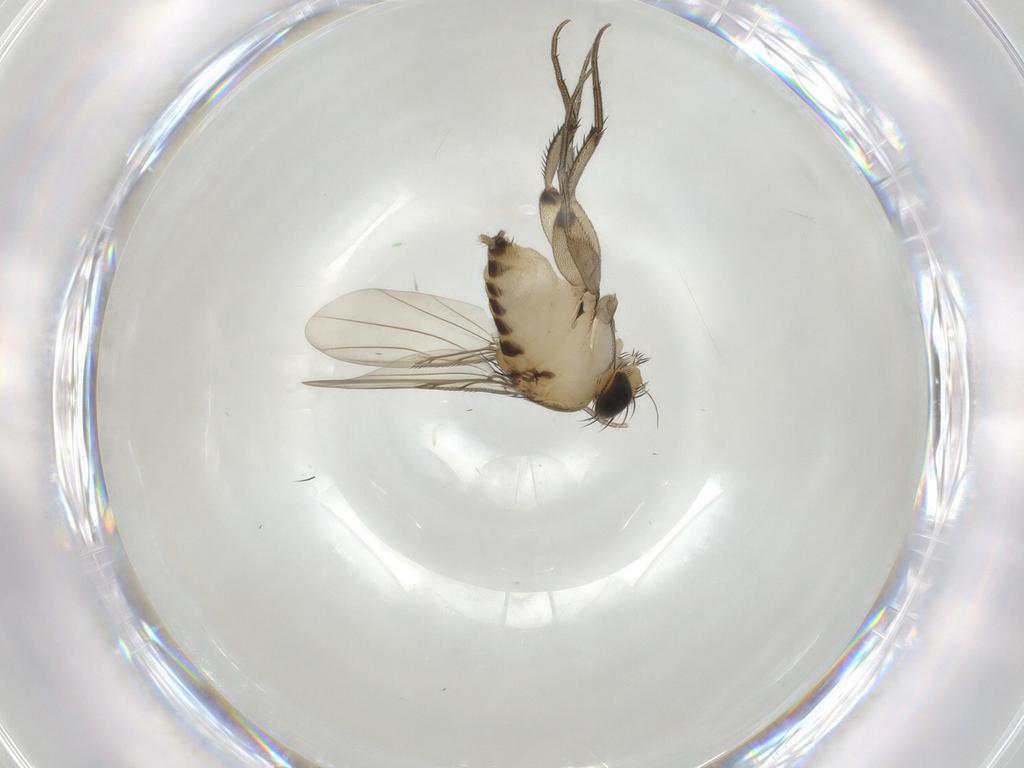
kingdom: Animalia
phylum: Arthropoda
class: Insecta
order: Diptera
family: Phoridae
